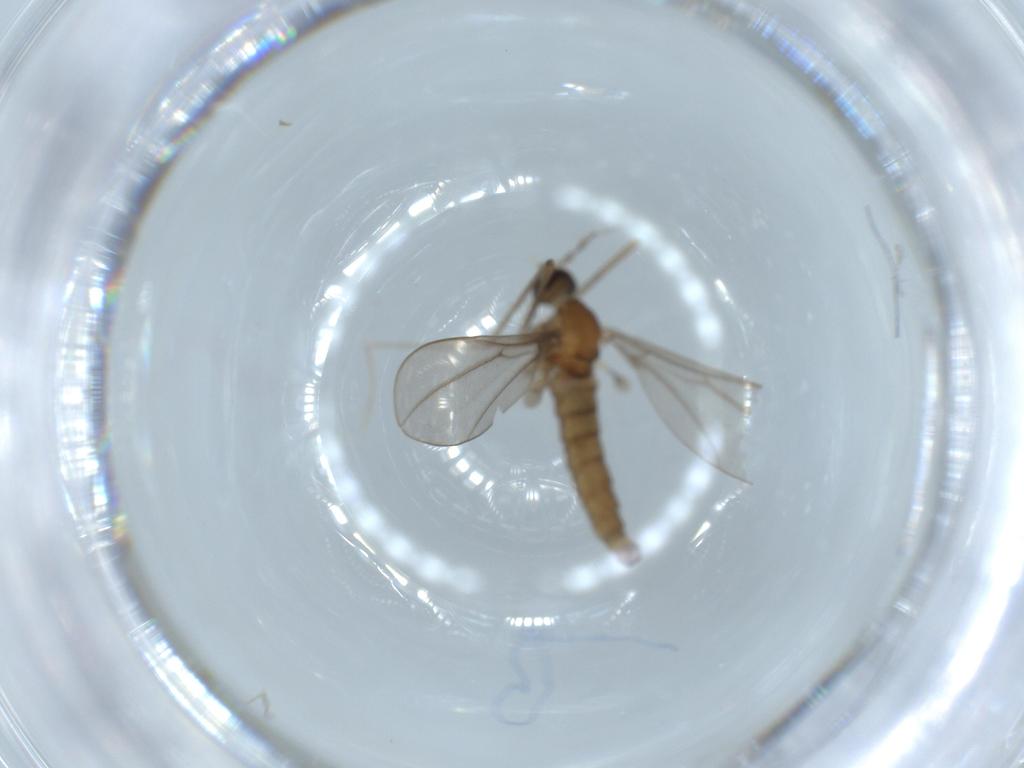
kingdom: Animalia
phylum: Arthropoda
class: Insecta
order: Diptera
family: Cecidomyiidae
